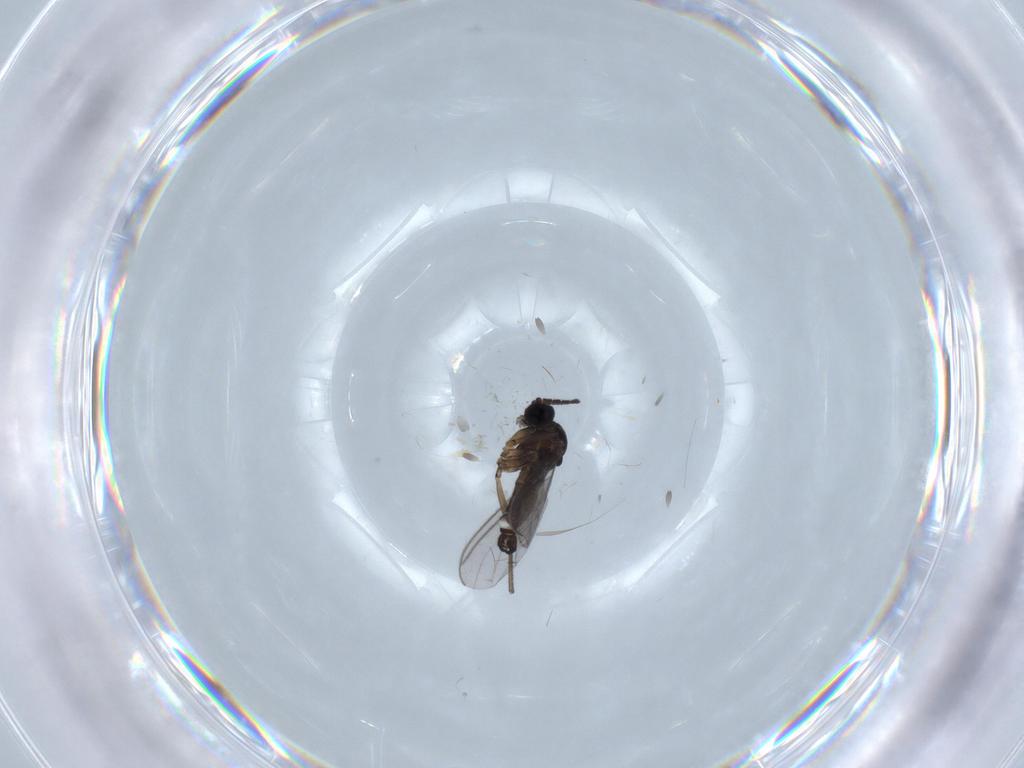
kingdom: Animalia
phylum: Arthropoda
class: Insecta
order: Diptera
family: Sciaridae
